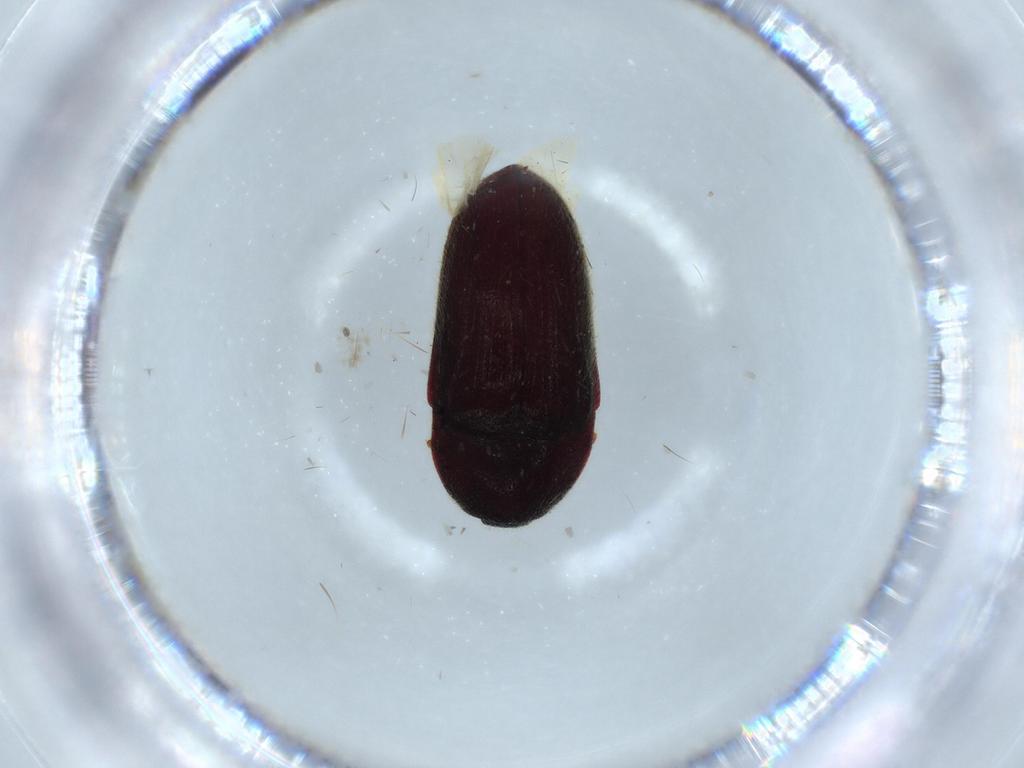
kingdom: Animalia
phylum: Arthropoda
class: Insecta
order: Coleoptera
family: Throscidae
